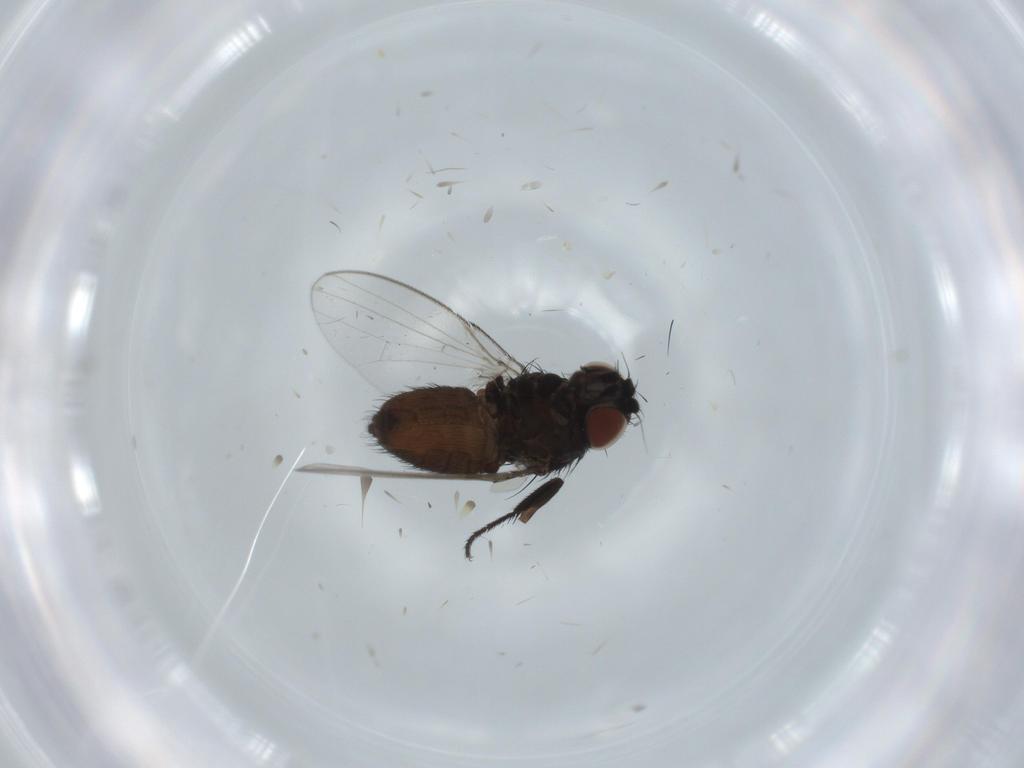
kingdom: Animalia
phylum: Arthropoda
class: Insecta
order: Diptera
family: Milichiidae
